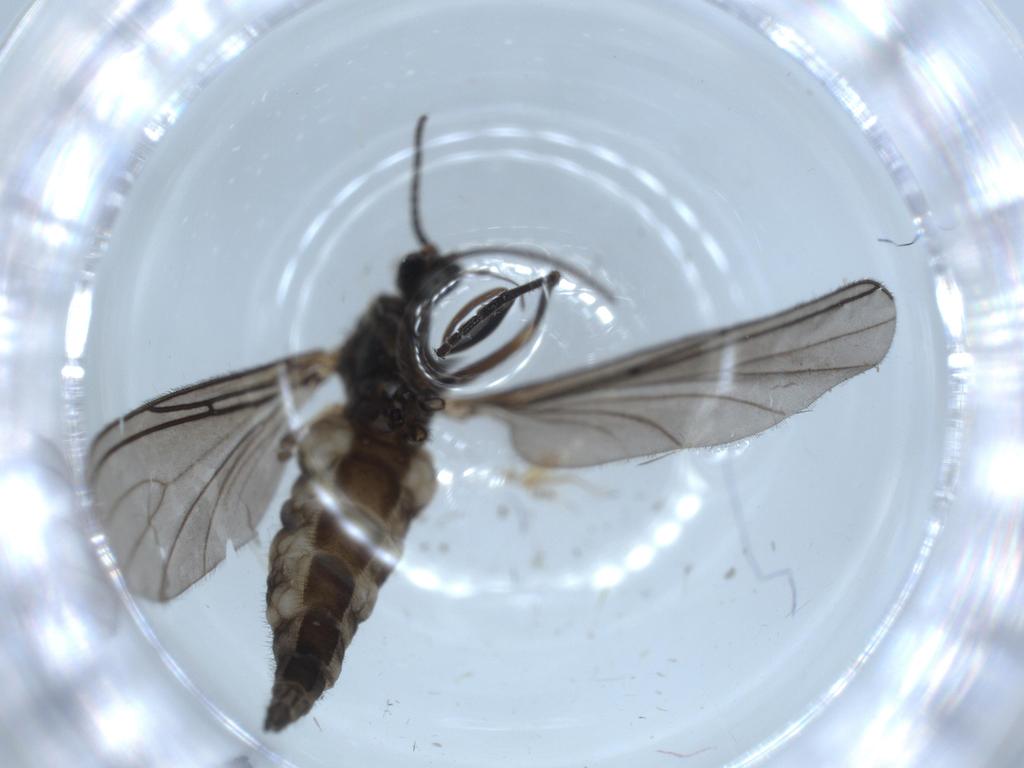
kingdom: Animalia
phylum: Arthropoda
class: Insecta
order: Diptera
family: Sciaridae
